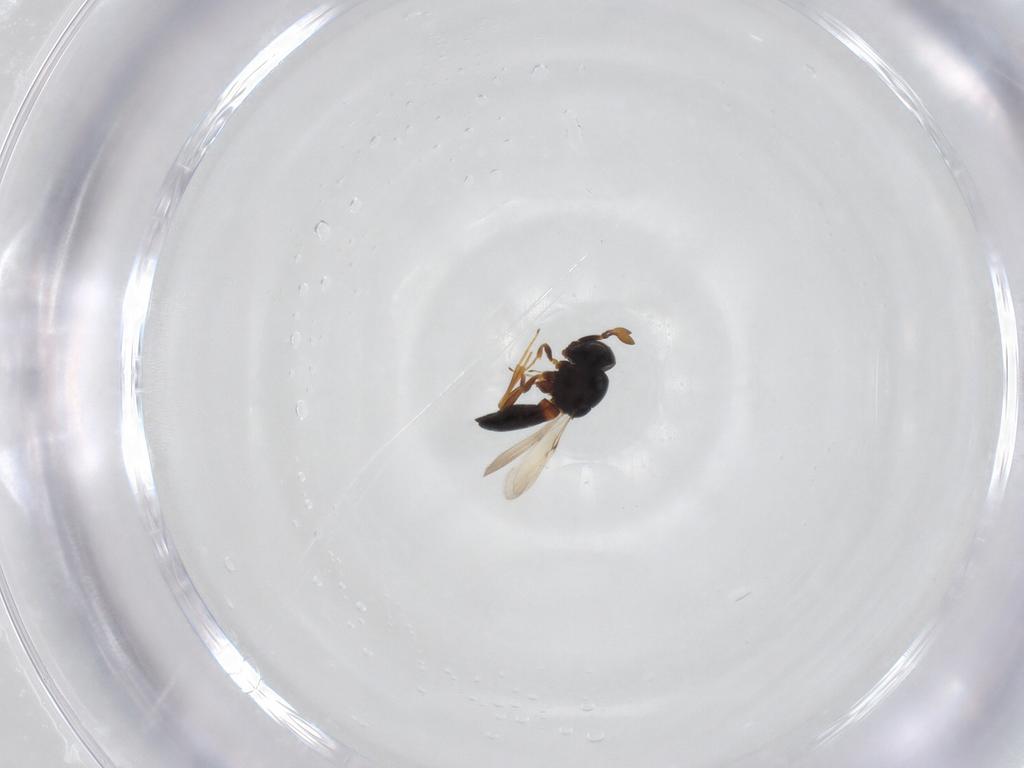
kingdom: Animalia
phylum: Arthropoda
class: Insecta
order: Hymenoptera
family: Scelionidae
